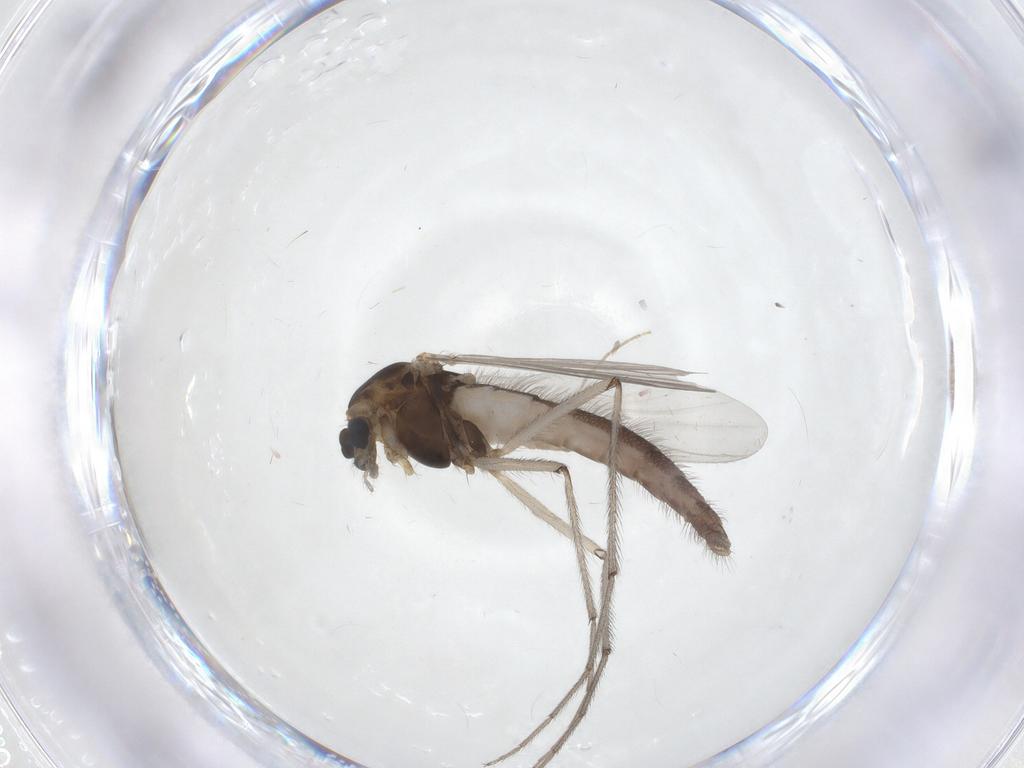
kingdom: Animalia
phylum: Arthropoda
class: Insecta
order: Diptera
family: Chironomidae
